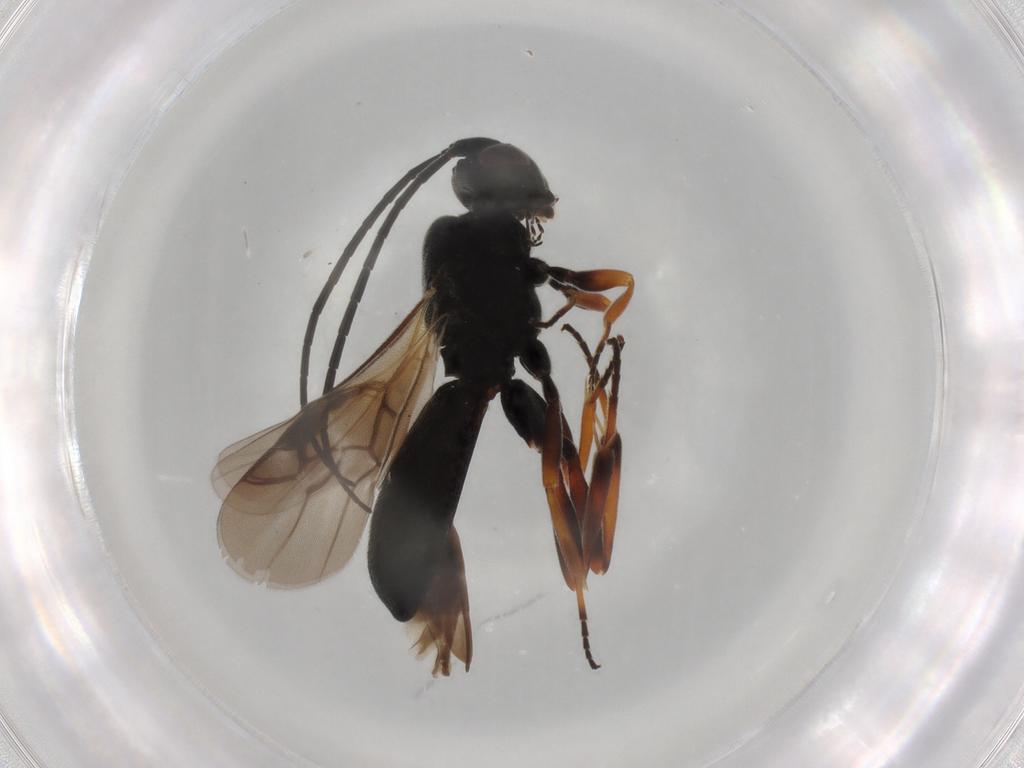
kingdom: Animalia
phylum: Arthropoda
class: Insecta
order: Hymenoptera
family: Braconidae
